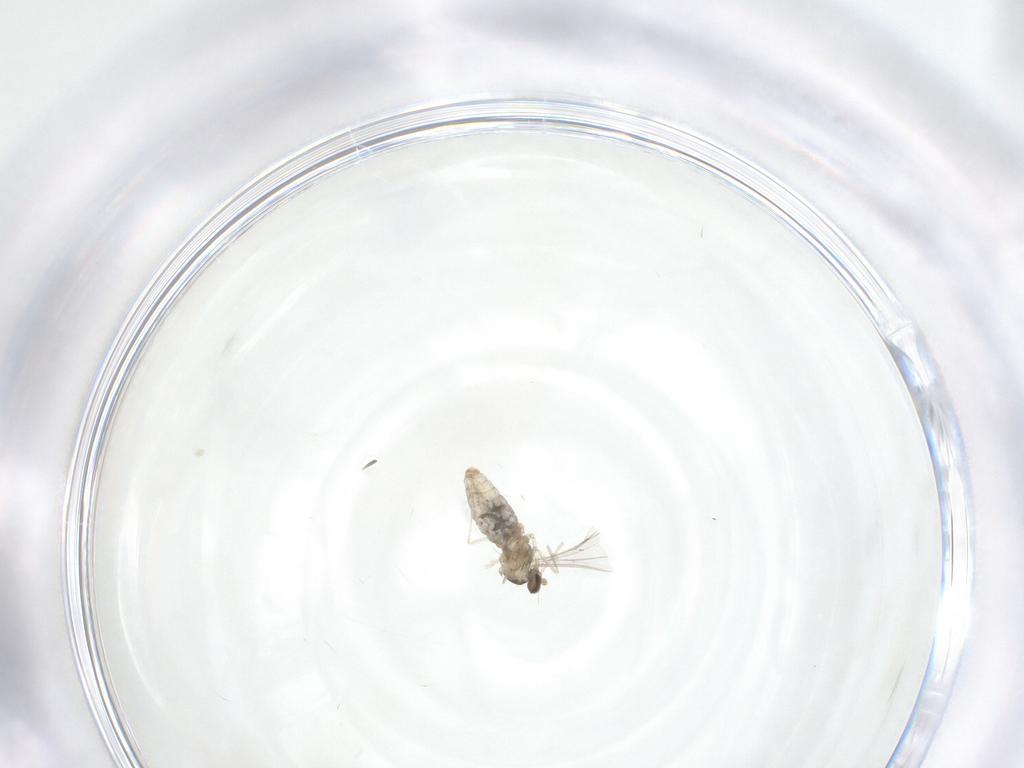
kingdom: Animalia
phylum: Arthropoda
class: Insecta
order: Diptera
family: Cecidomyiidae
